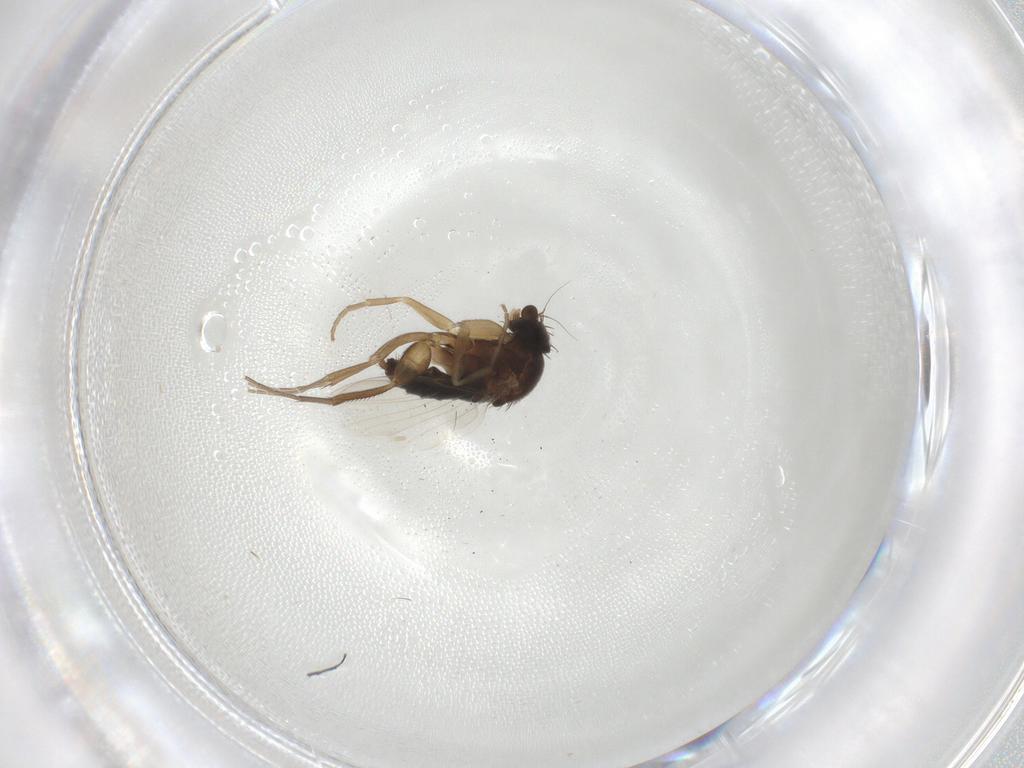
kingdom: Animalia
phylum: Arthropoda
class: Insecta
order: Diptera
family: Phoridae
